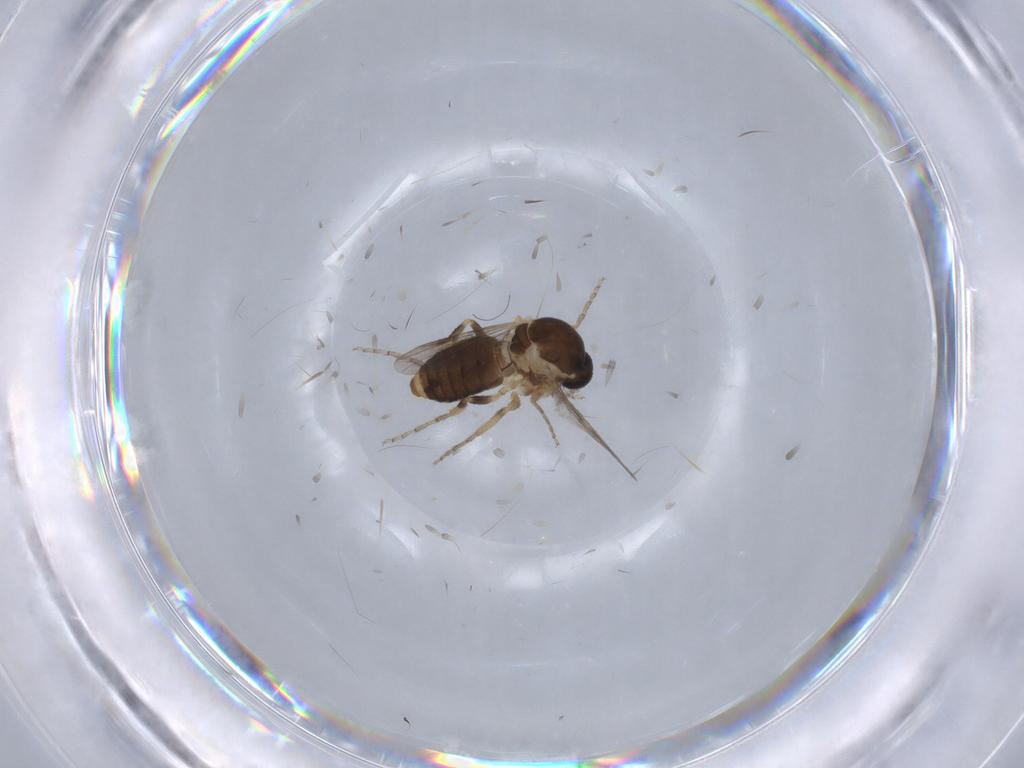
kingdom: Animalia
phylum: Arthropoda
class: Insecta
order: Diptera
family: Ceratopogonidae
